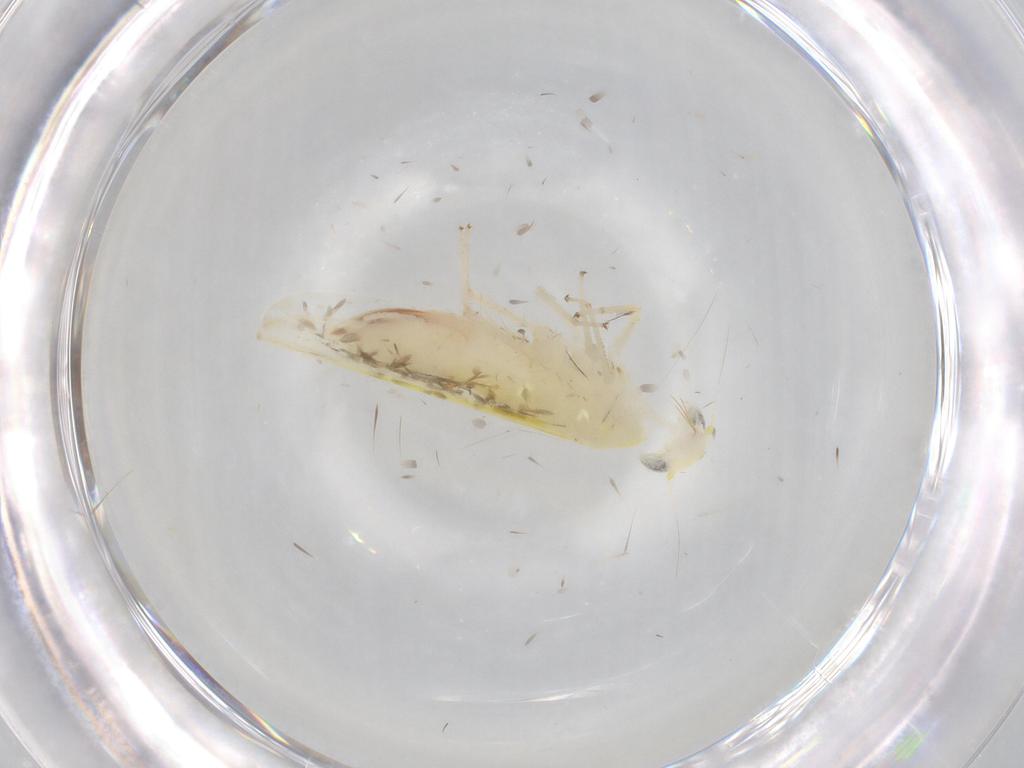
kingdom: Animalia
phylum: Arthropoda
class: Insecta
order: Hemiptera
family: Cicadellidae
